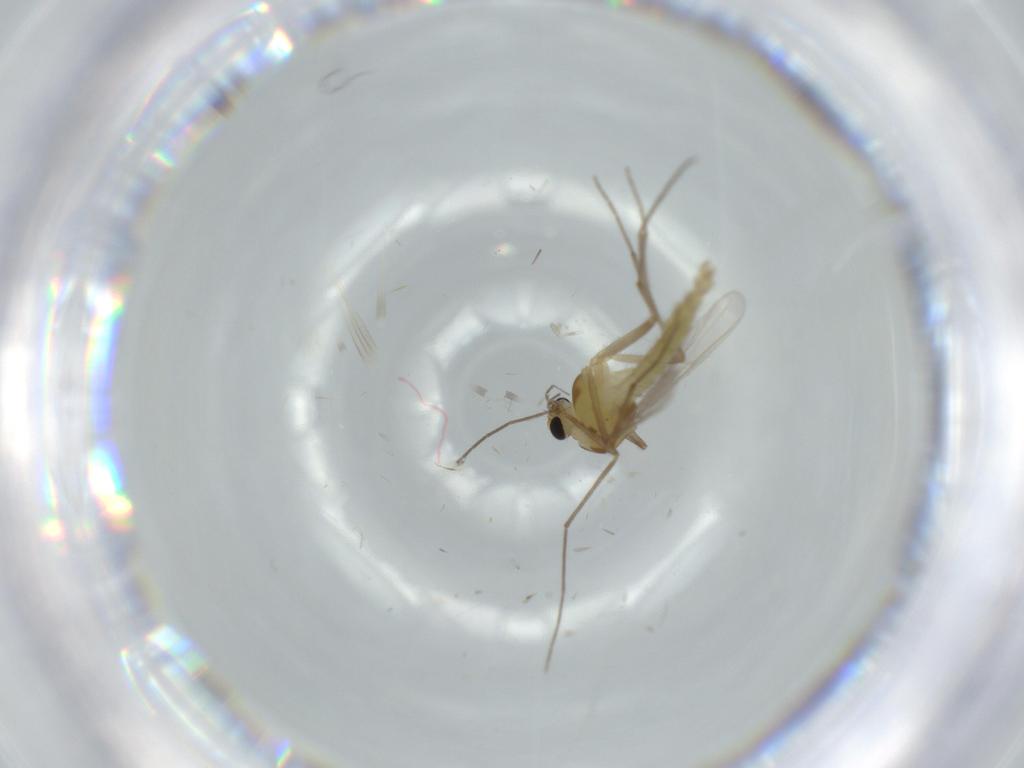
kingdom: Animalia
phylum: Arthropoda
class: Insecta
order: Diptera
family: Chironomidae
